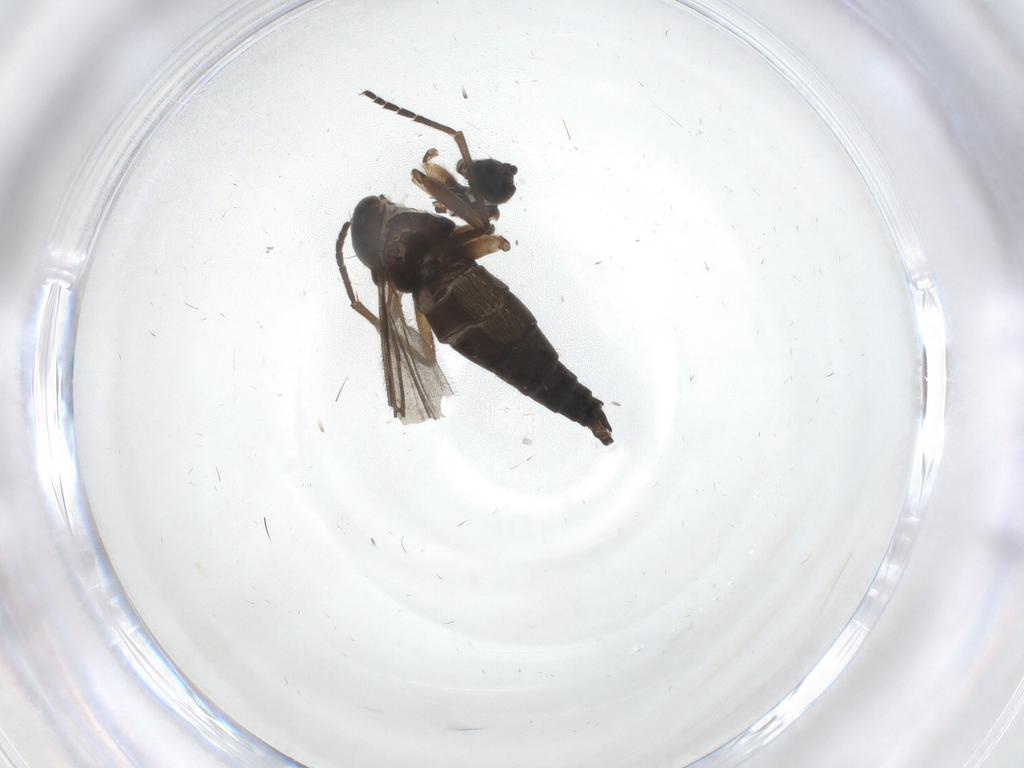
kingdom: Animalia
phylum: Arthropoda
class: Insecta
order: Diptera
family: Sciaridae
